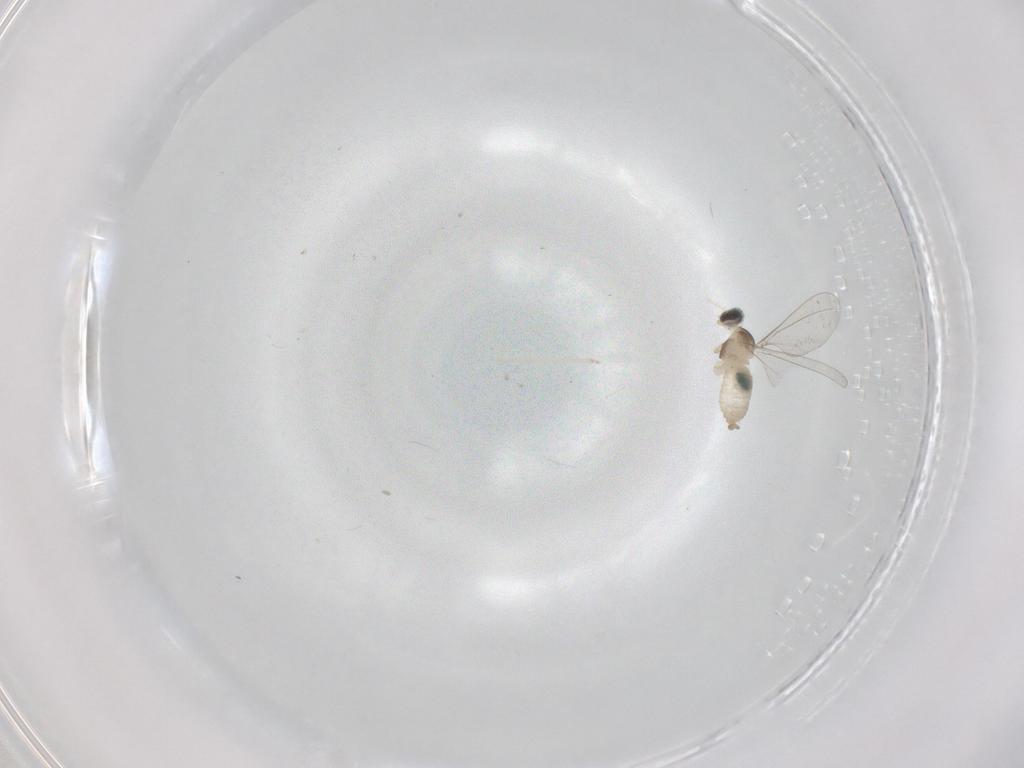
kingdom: Animalia
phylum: Arthropoda
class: Insecta
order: Diptera
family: Cecidomyiidae
